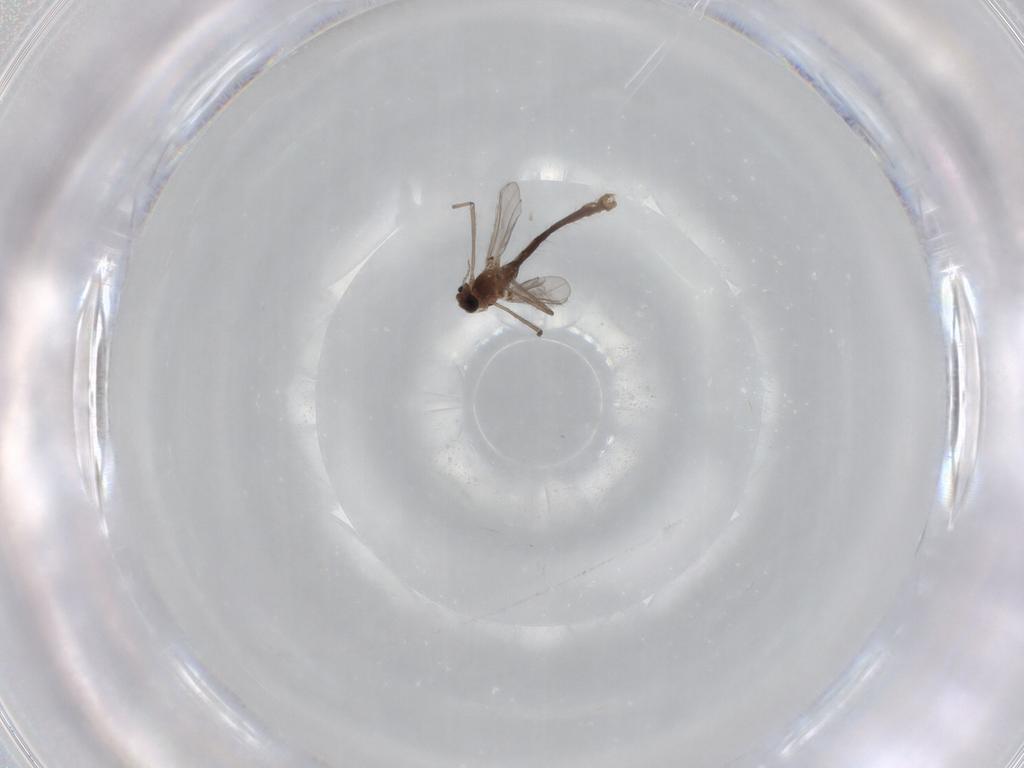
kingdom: Animalia
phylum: Arthropoda
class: Insecta
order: Diptera
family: Chironomidae
